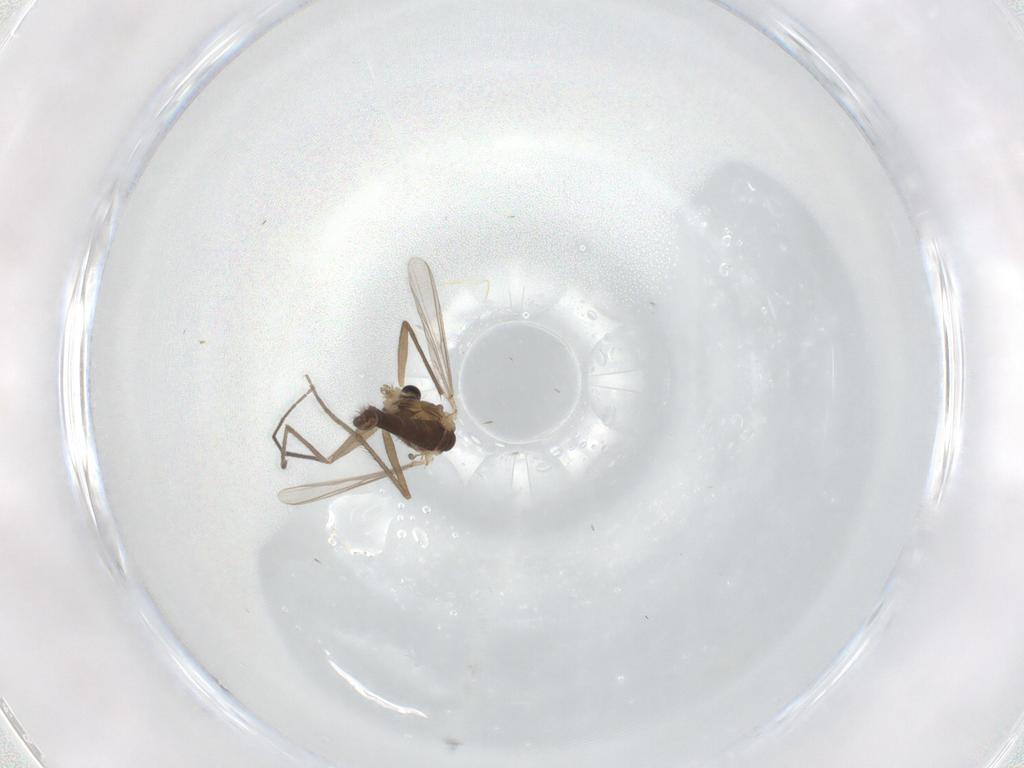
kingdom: Animalia
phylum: Arthropoda
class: Insecta
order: Diptera
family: Chironomidae
